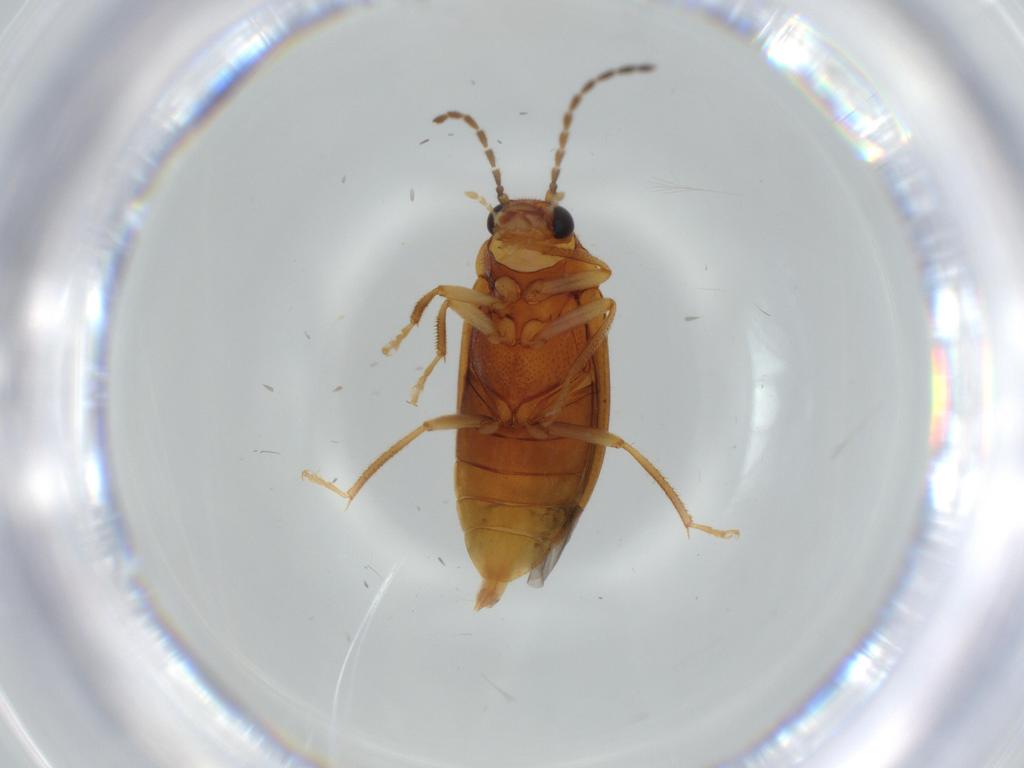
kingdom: Animalia
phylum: Arthropoda
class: Insecta
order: Coleoptera
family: Ptilodactylidae
